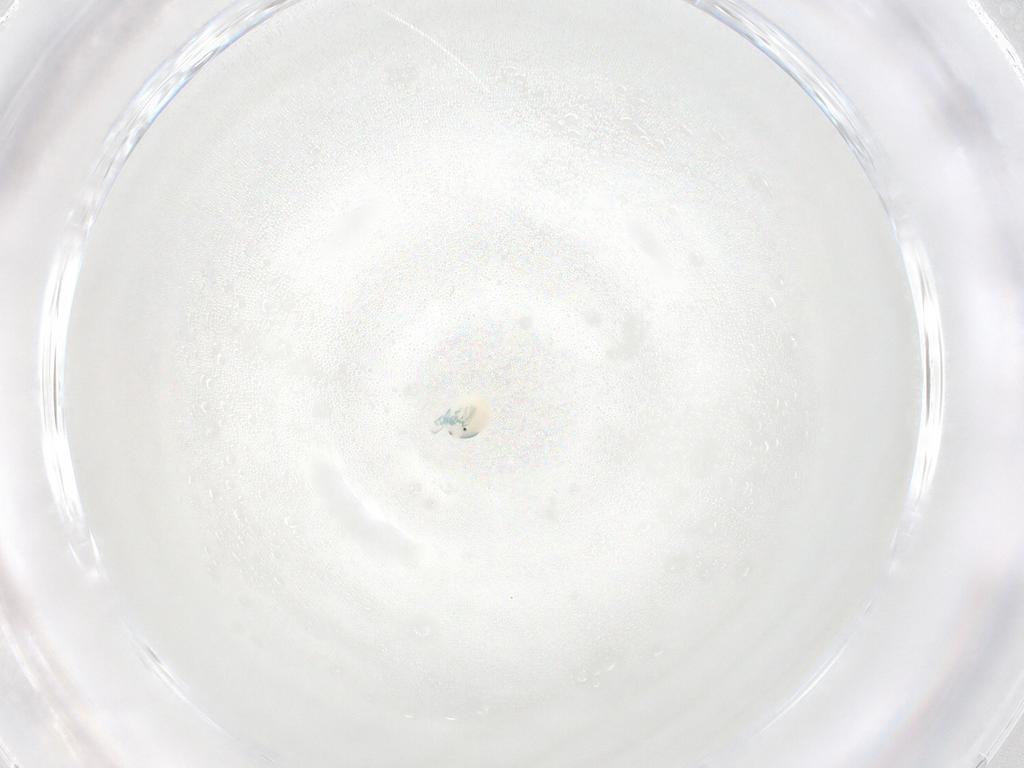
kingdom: Animalia
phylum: Arthropoda
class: Arachnida
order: Trombidiformes
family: Arrenuridae
